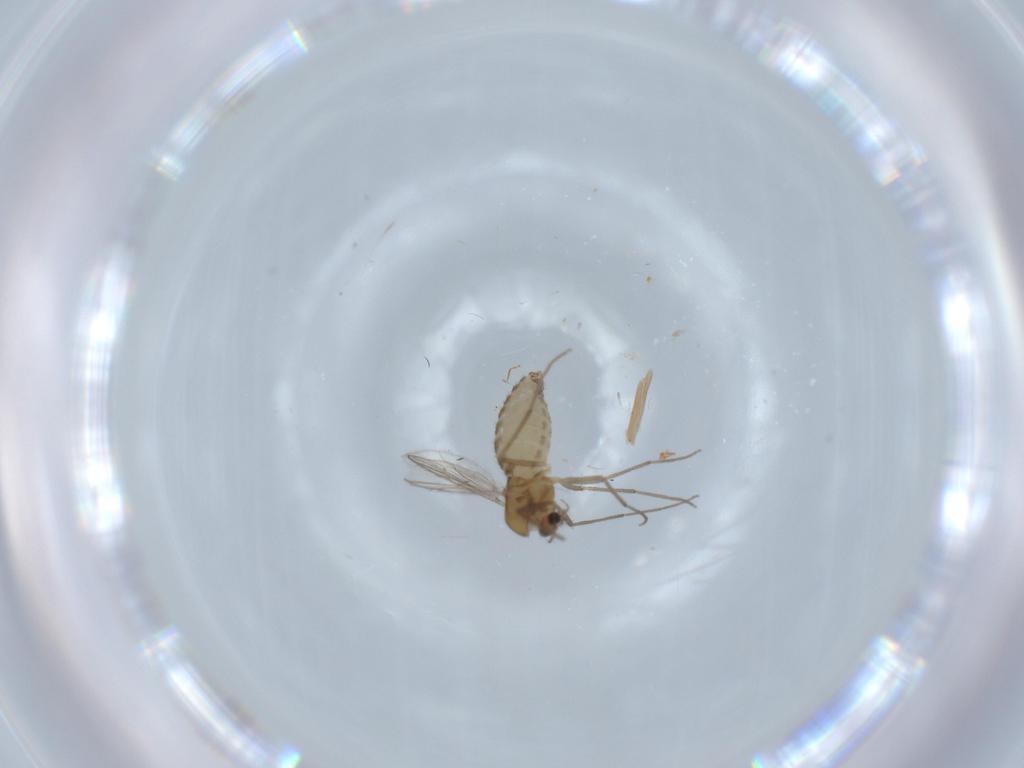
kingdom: Animalia
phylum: Arthropoda
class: Insecta
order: Diptera
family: Chironomidae
